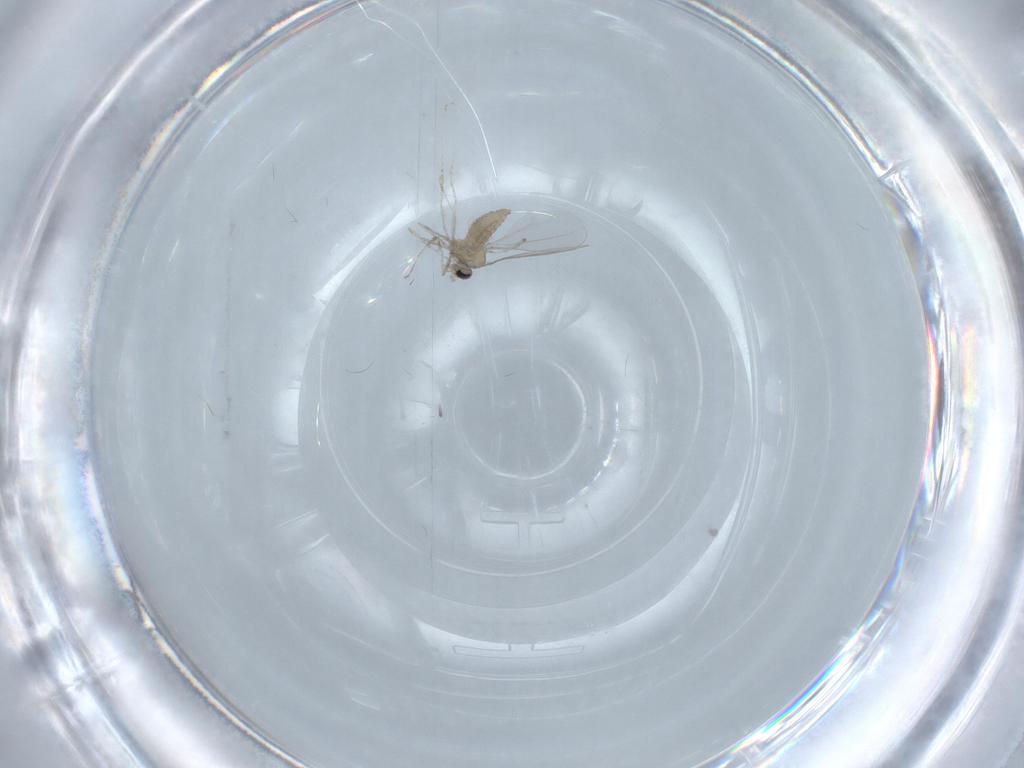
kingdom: Animalia
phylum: Arthropoda
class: Insecta
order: Diptera
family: Cecidomyiidae
